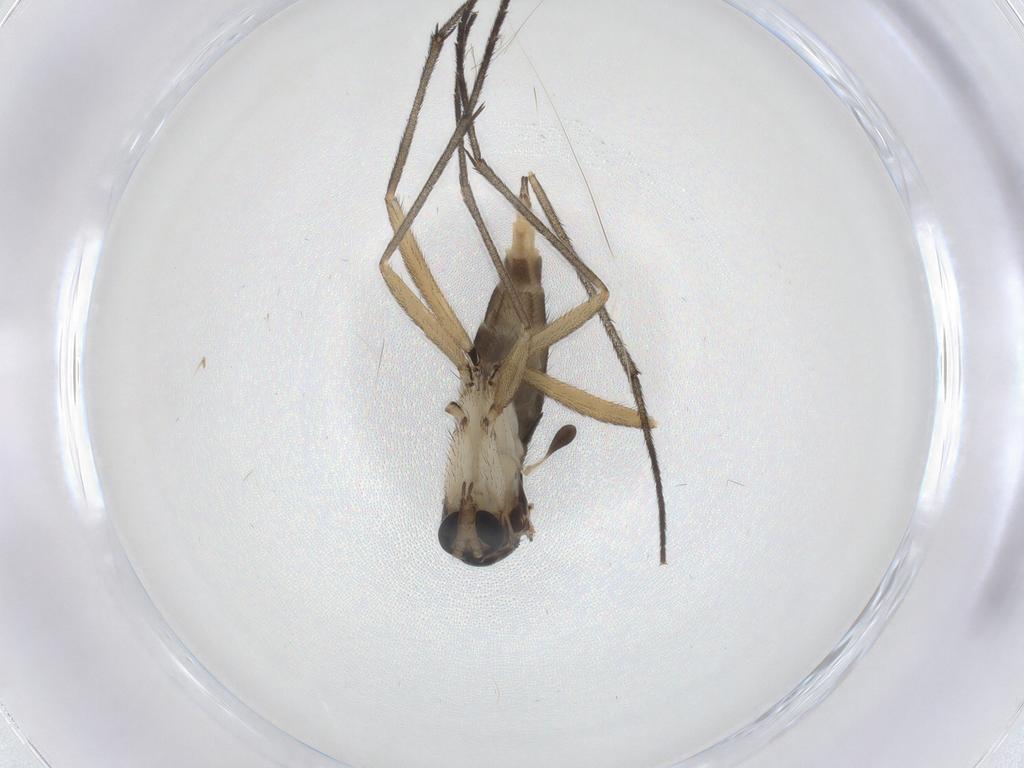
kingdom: Animalia
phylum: Arthropoda
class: Insecta
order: Diptera
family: Sciaridae
